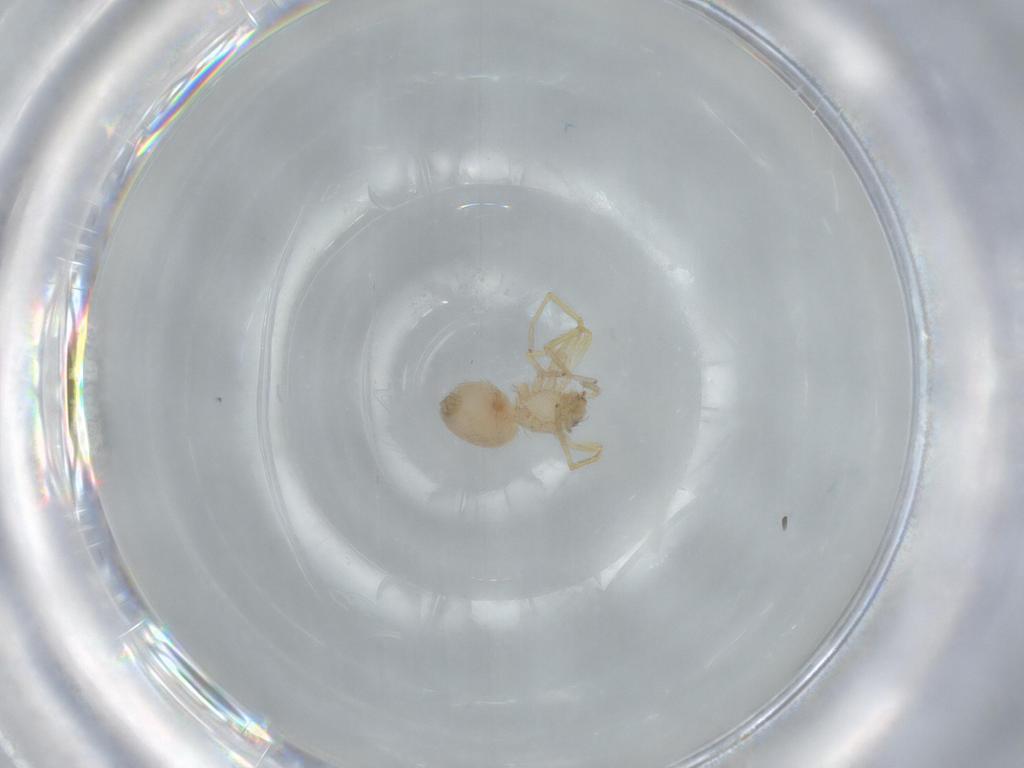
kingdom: Animalia
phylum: Arthropoda
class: Arachnida
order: Araneae
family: Oonopidae
